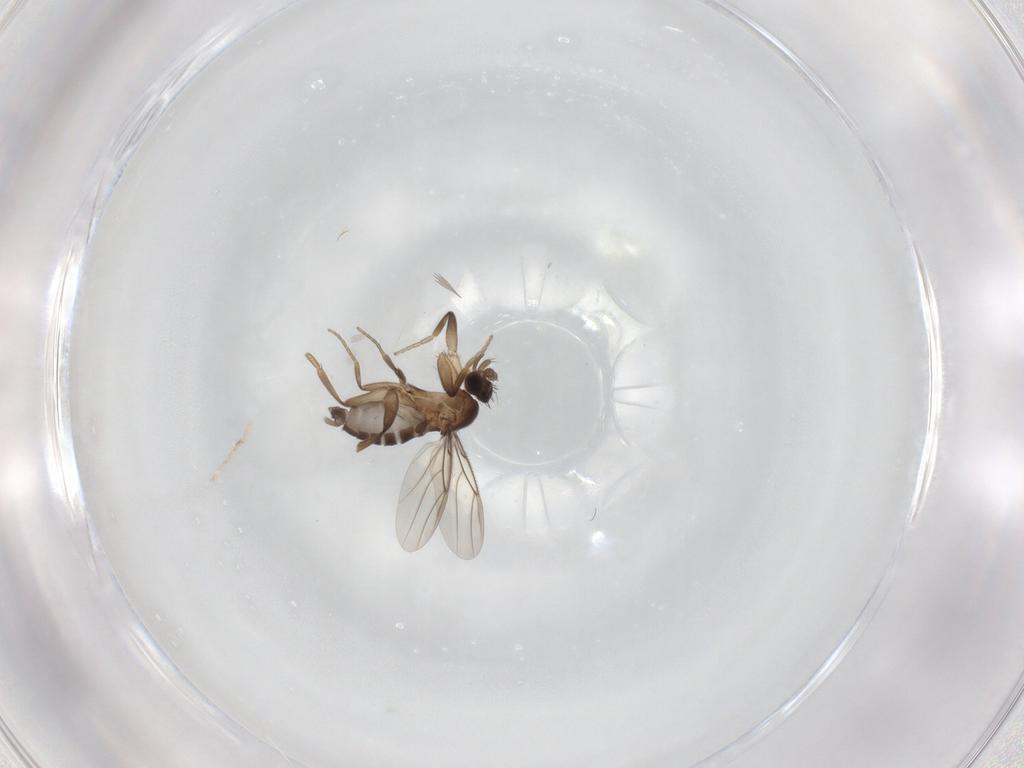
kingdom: Animalia
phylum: Arthropoda
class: Insecta
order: Diptera
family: Phoridae
